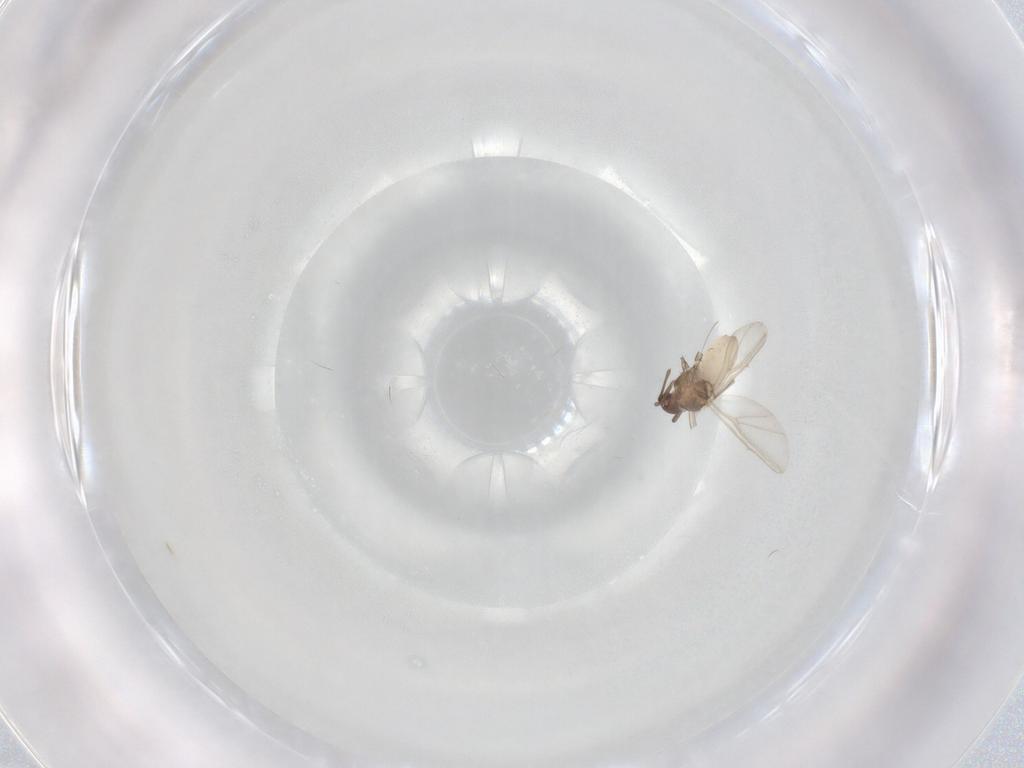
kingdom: Animalia
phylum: Arthropoda
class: Insecta
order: Hemiptera
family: Aphididae
